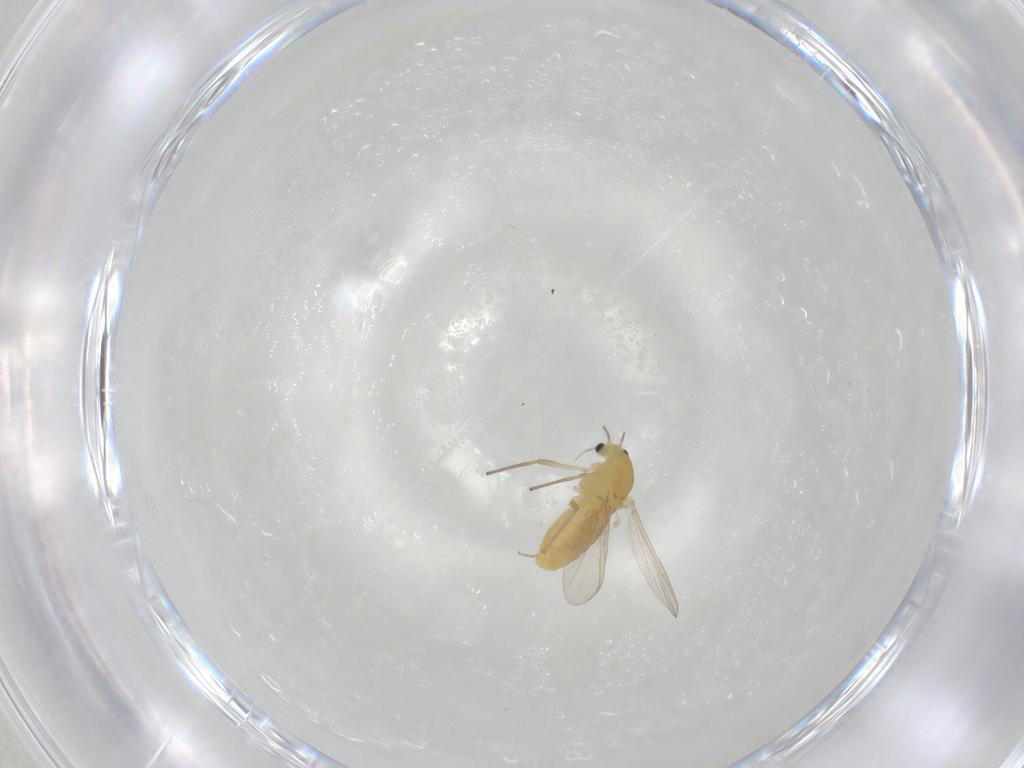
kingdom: Animalia
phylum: Arthropoda
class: Insecta
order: Diptera
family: Chironomidae
